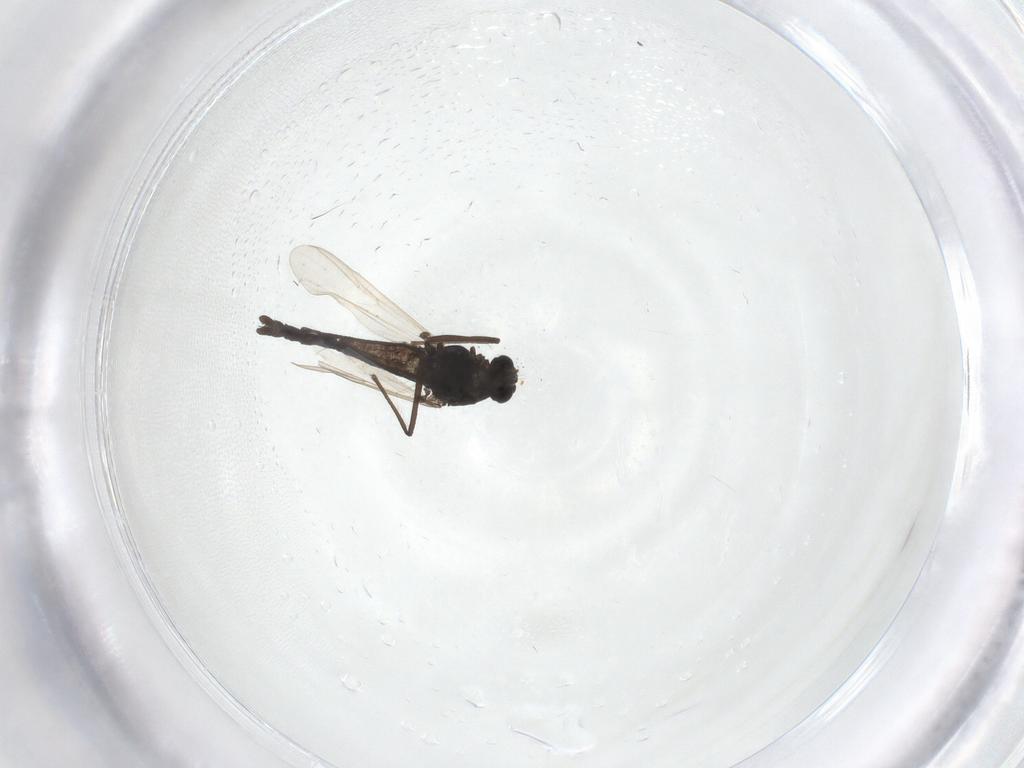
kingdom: Animalia
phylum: Arthropoda
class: Insecta
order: Diptera
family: Chironomidae
